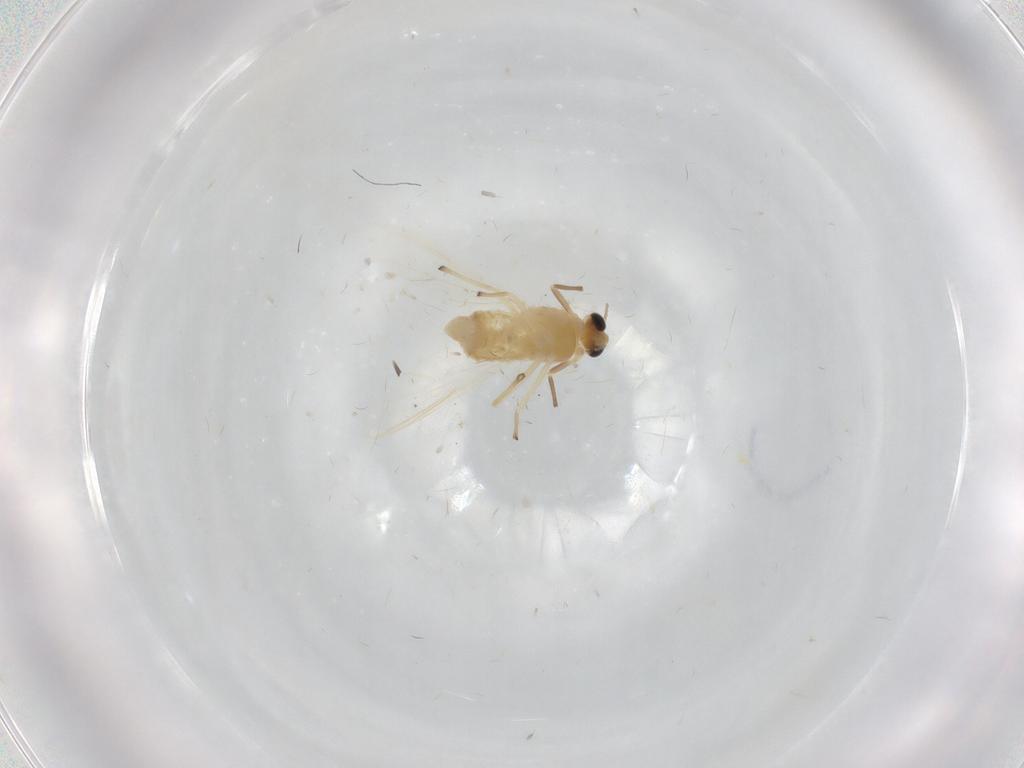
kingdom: Animalia
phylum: Arthropoda
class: Insecta
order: Diptera
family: Chironomidae
